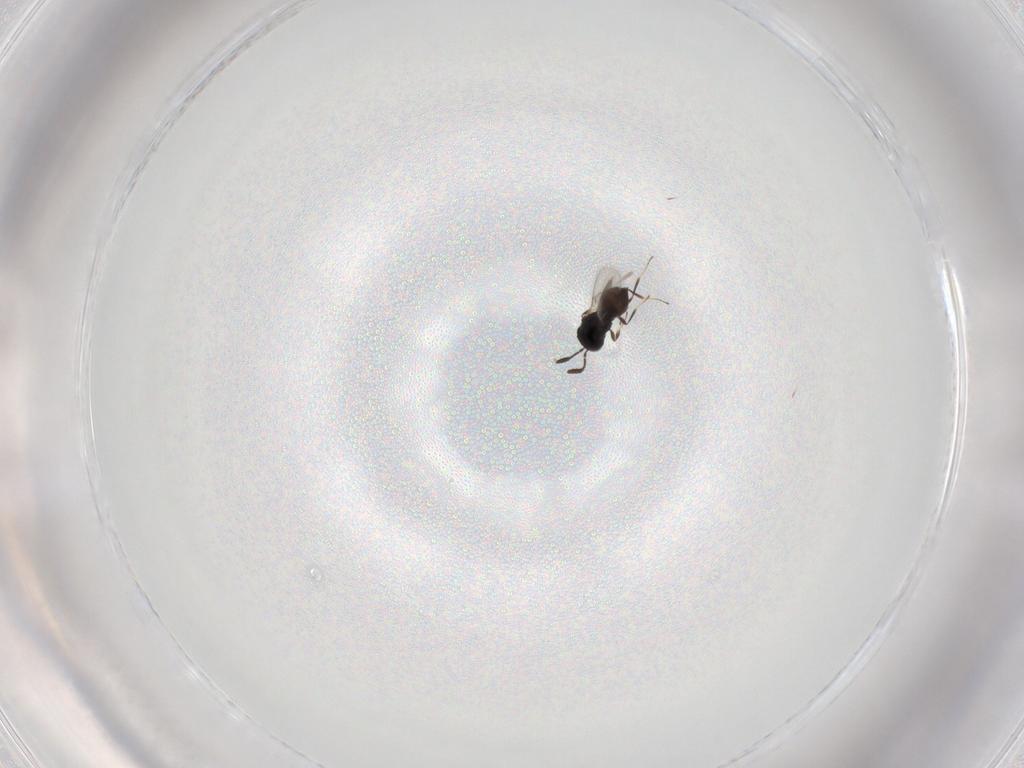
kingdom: Animalia
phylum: Arthropoda
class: Insecta
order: Hymenoptera
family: Scelionidae
